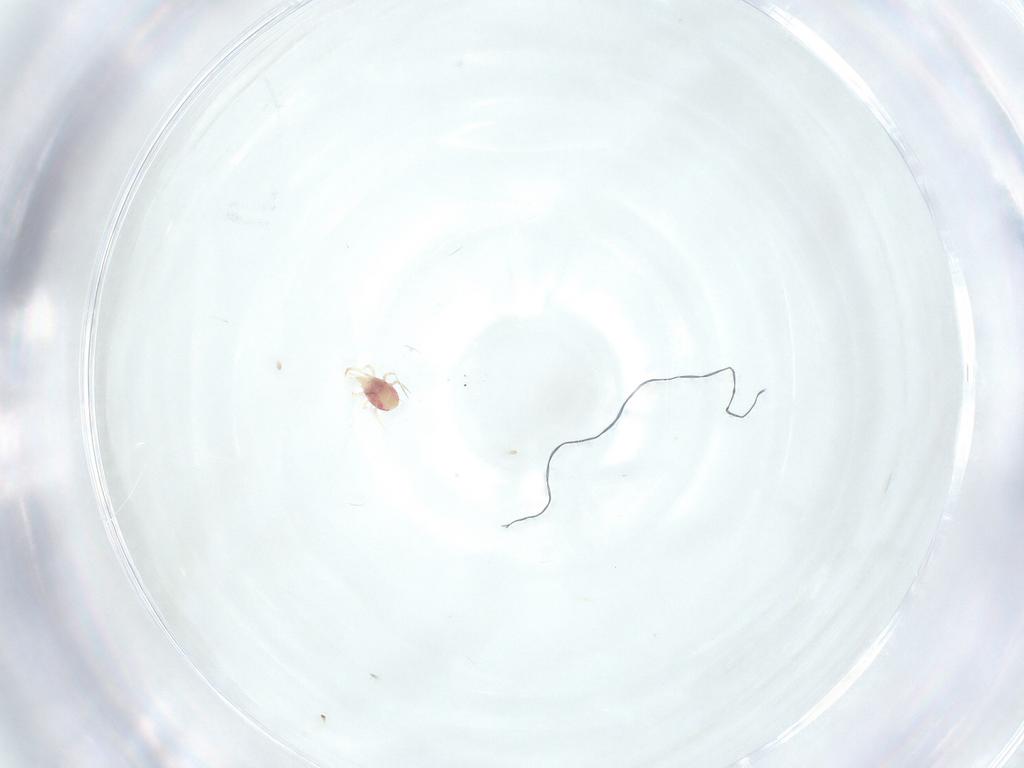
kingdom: Animalia
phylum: Arthropoda
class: Arachnida
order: Mesostigmata
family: Phytoseiidae
